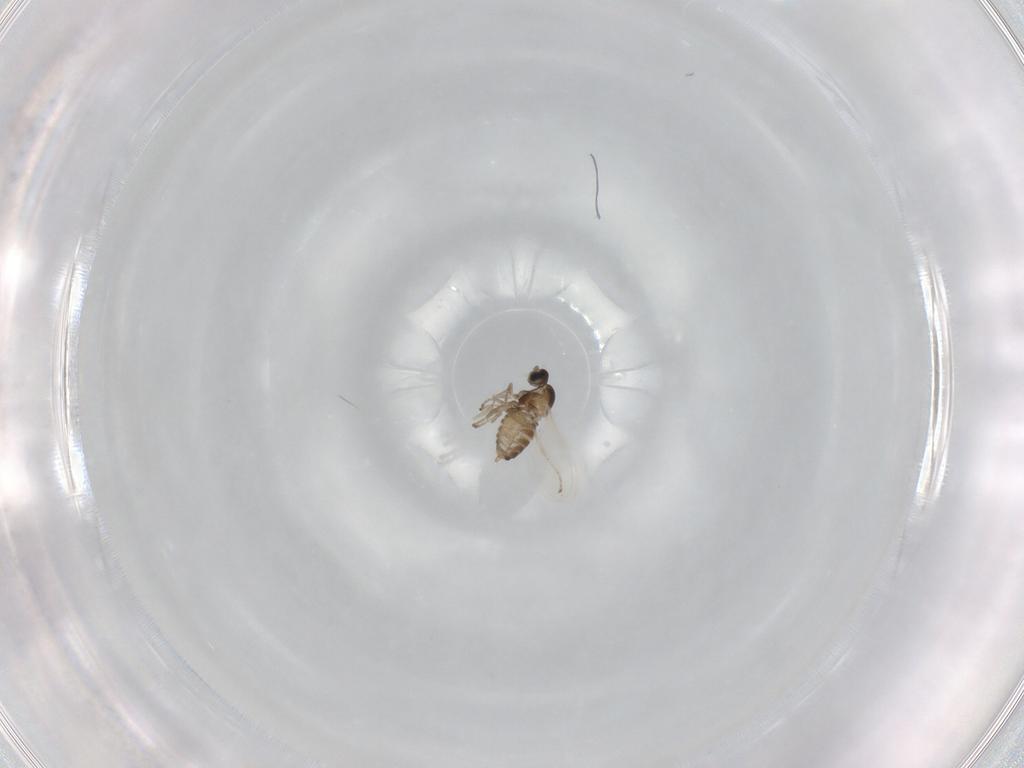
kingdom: Animalia
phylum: Arthropoda
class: Insecta
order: Diptera
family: Cecidomyiidae
